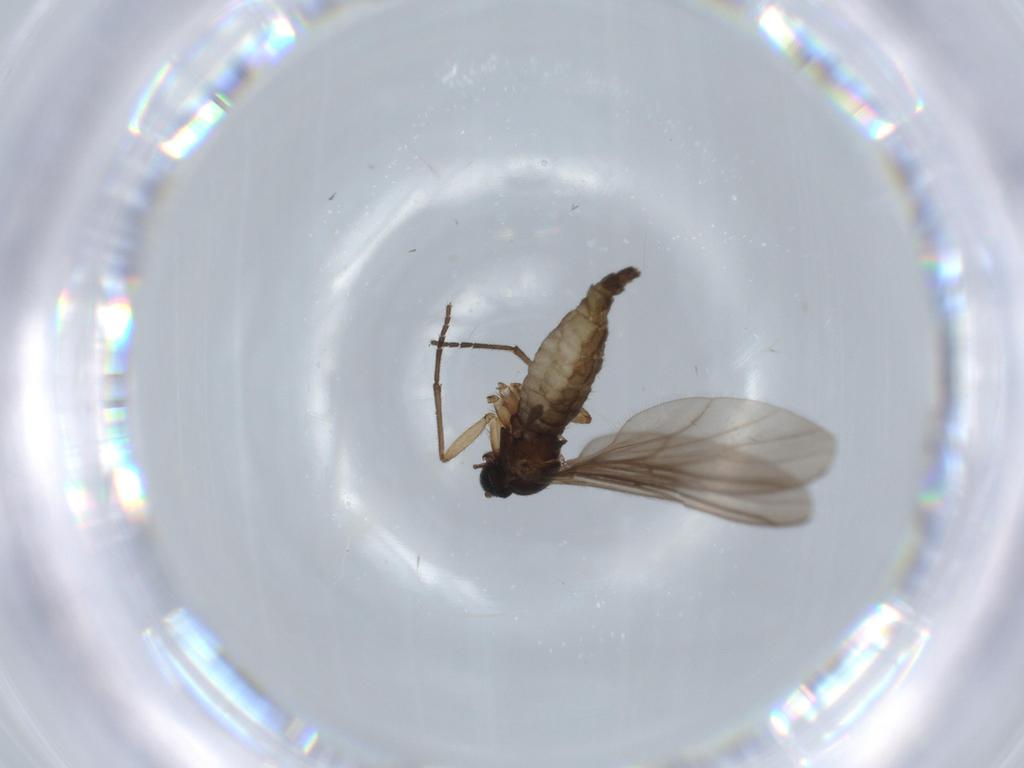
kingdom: Animalia
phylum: Arthropoda
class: Insecta
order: Diptera
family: Sciaridae
